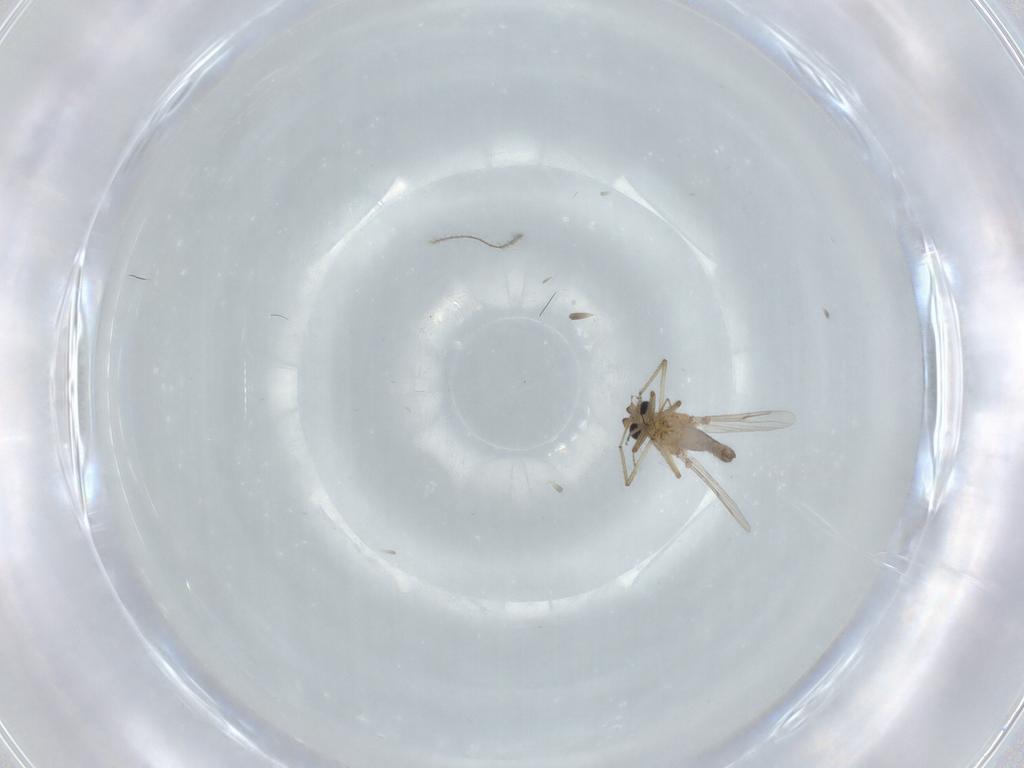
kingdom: Animalia
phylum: Arthropoda
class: Insecta
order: Diptera
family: Ceratopogonidae
